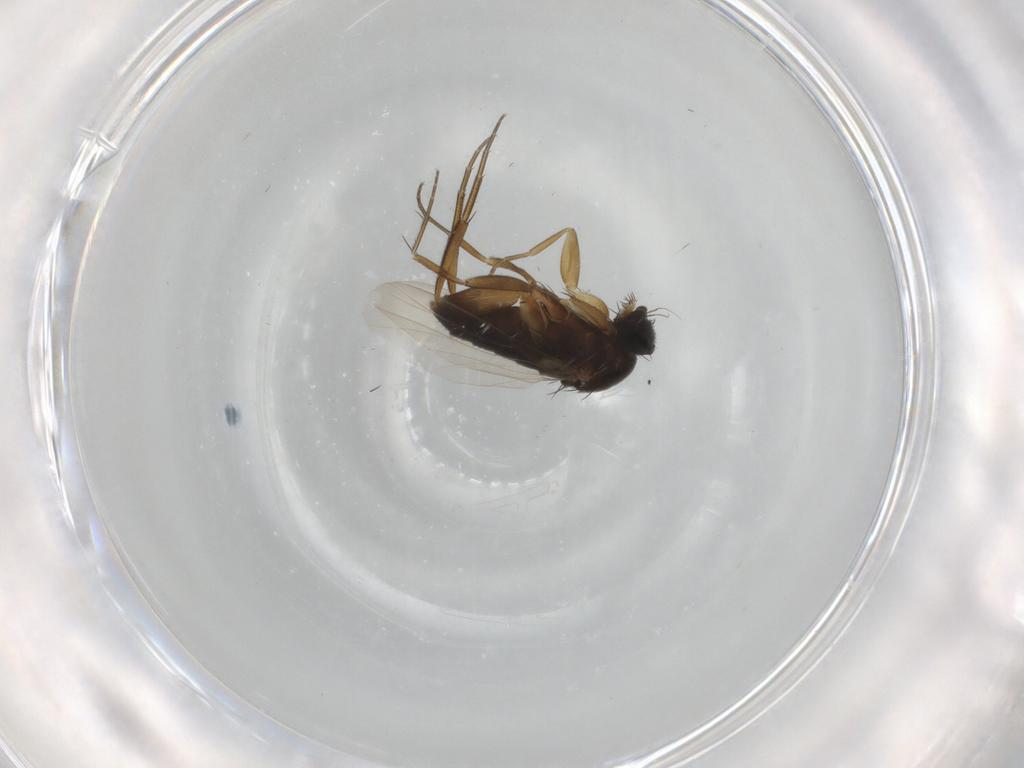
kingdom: Animalia
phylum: Arthropoda
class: Insecta
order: Diptera
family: Phoridae
